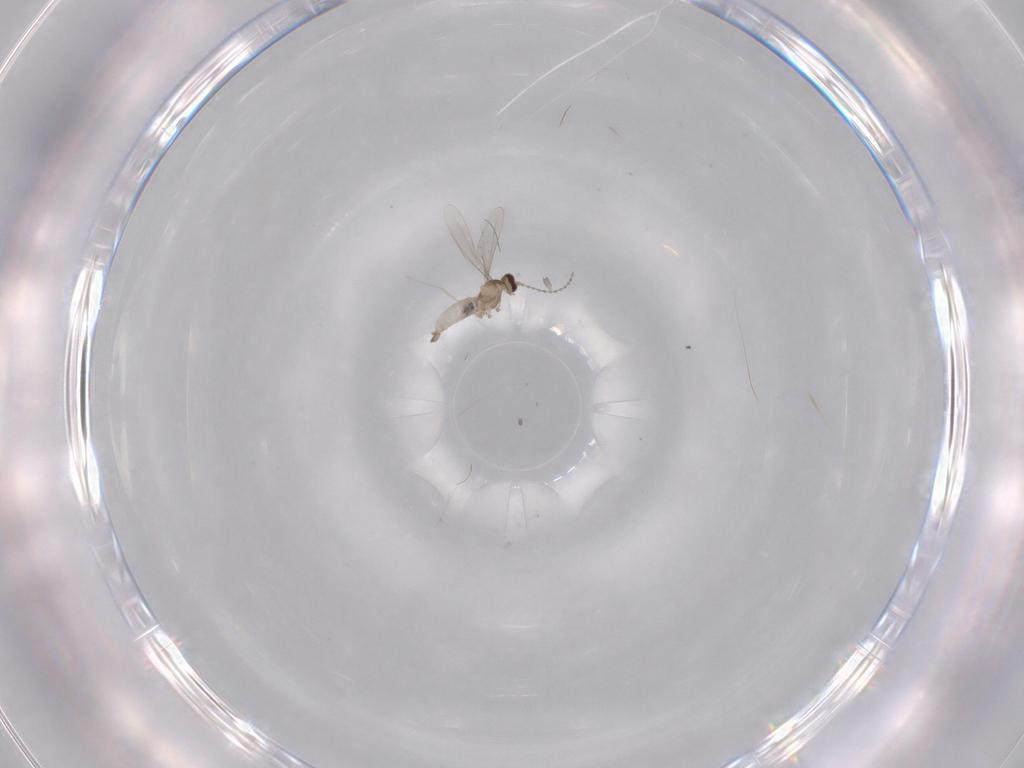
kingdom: Animalia
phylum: Arthropoda
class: Insecta
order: Diptera
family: Cecidomyiidae
